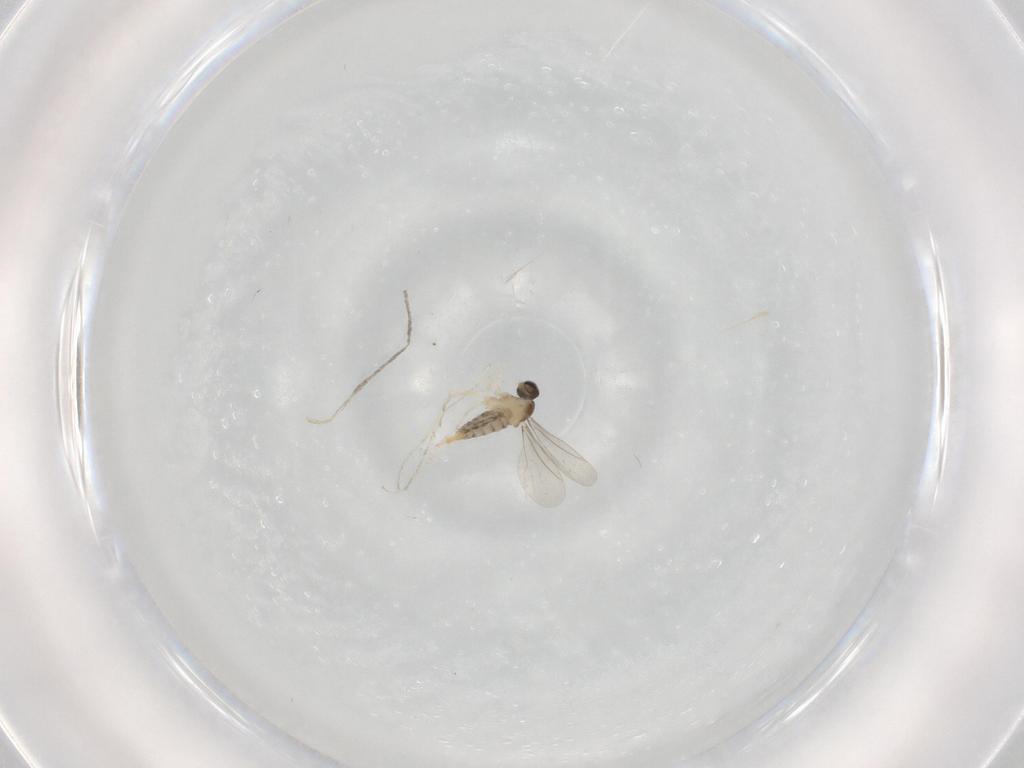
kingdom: Animalia
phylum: Arthropoda
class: Insecta
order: Diptera
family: Cecidomyiidae
